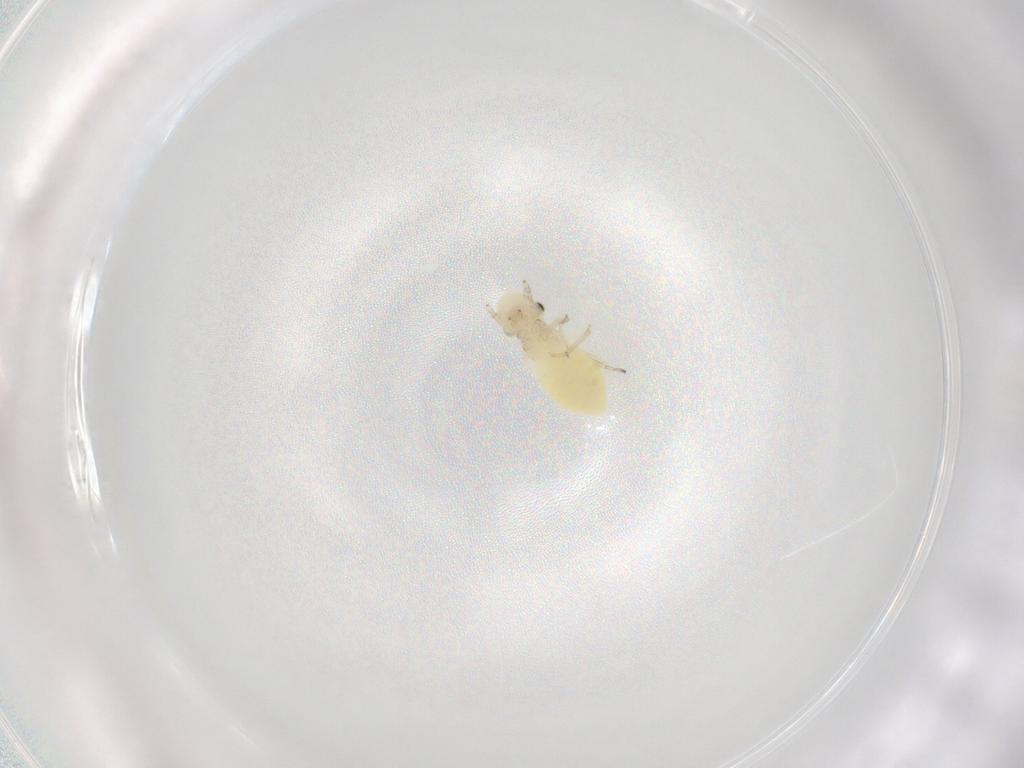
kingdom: Animalia
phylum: Arthropoda
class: Insecta
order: Psocodea
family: Caeciliusidae
